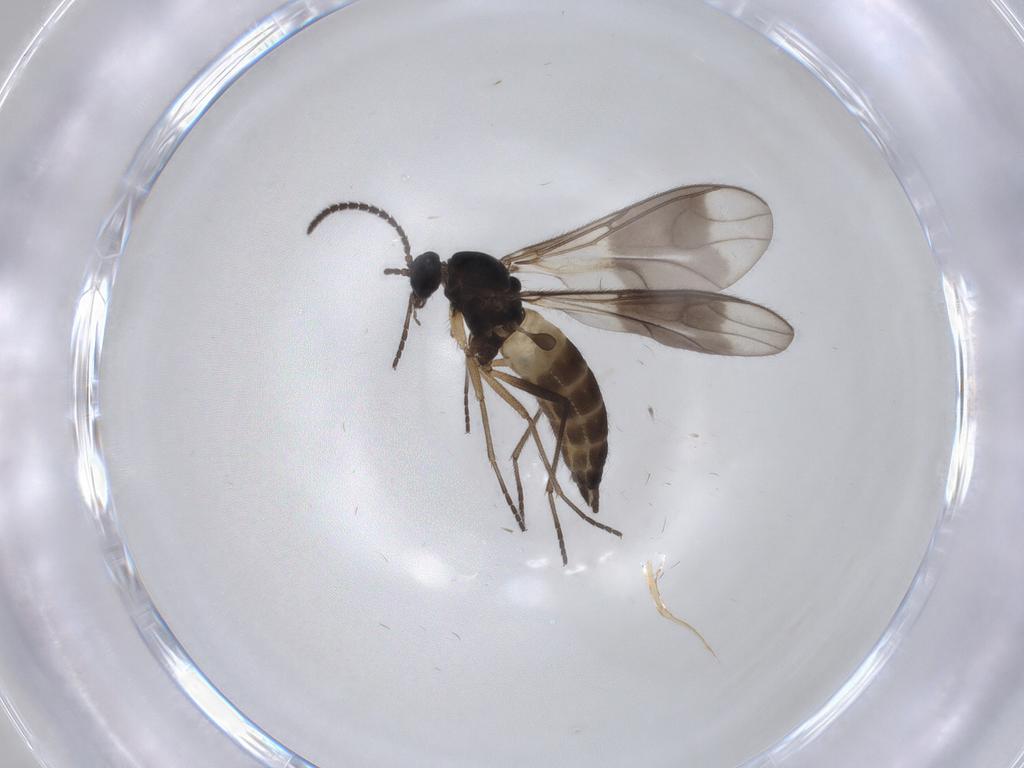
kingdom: Animalia
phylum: Arthropoda
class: Insecta
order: Diptera
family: Sciaridae
